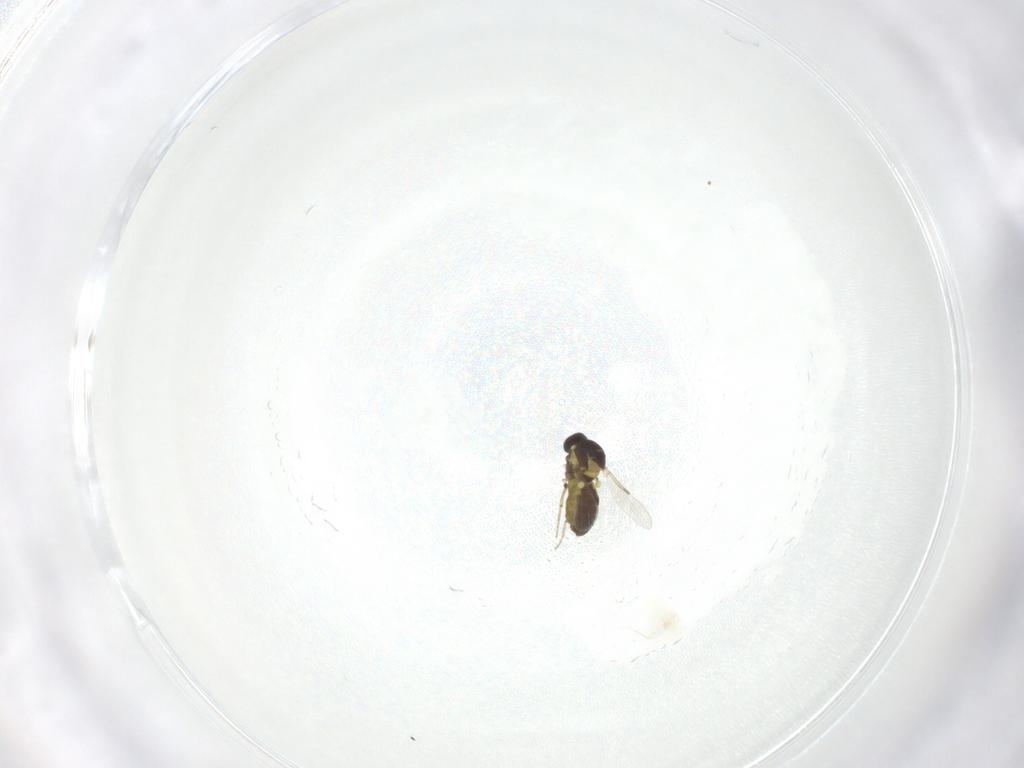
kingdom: Animalia
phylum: Arthropoda
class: Insecta
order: Diptera
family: Ceratopogonidae
